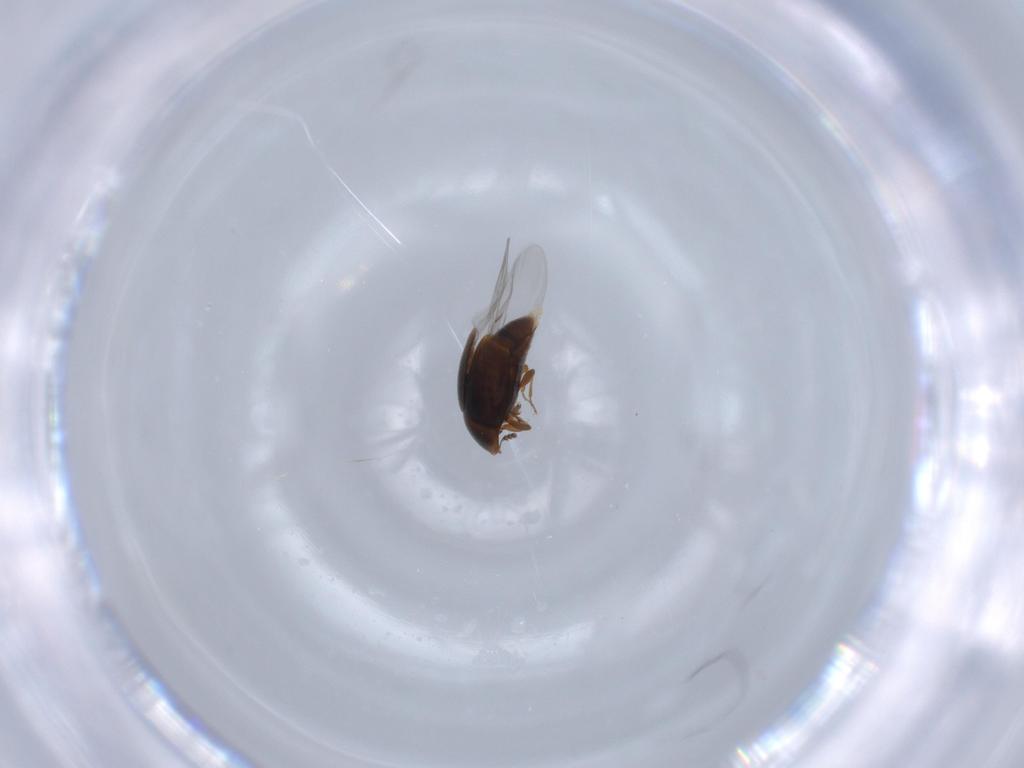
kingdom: Animalia
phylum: Arthropoda
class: Insecta
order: Coleoptera
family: Corylophidae
